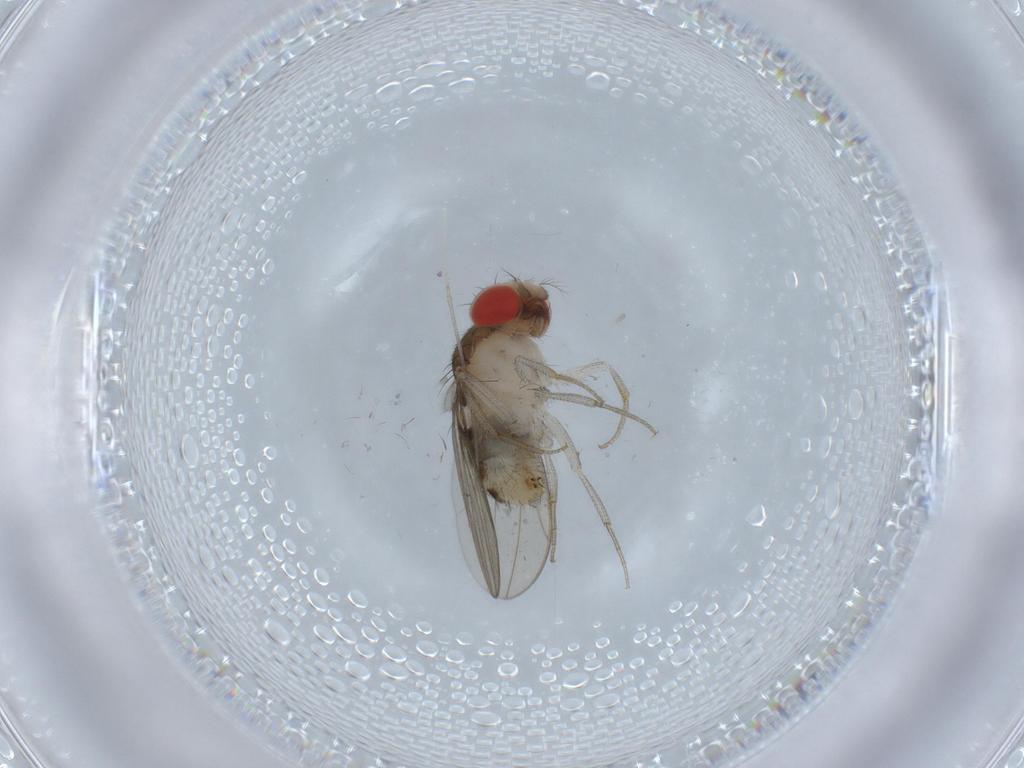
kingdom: Animalia
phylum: Arthropoda
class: Insecta
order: Diptera
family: Drosophilidae
